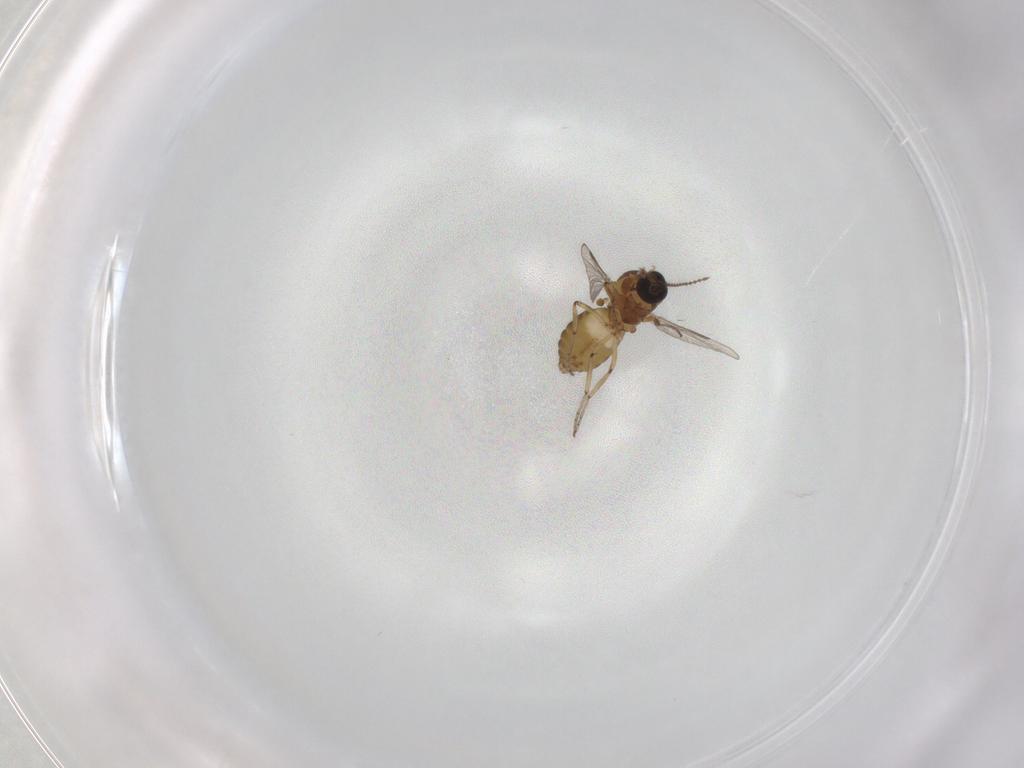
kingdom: Animalia
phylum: Arthropoda
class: Insecta
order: Diptera
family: Ceratopogonidae
